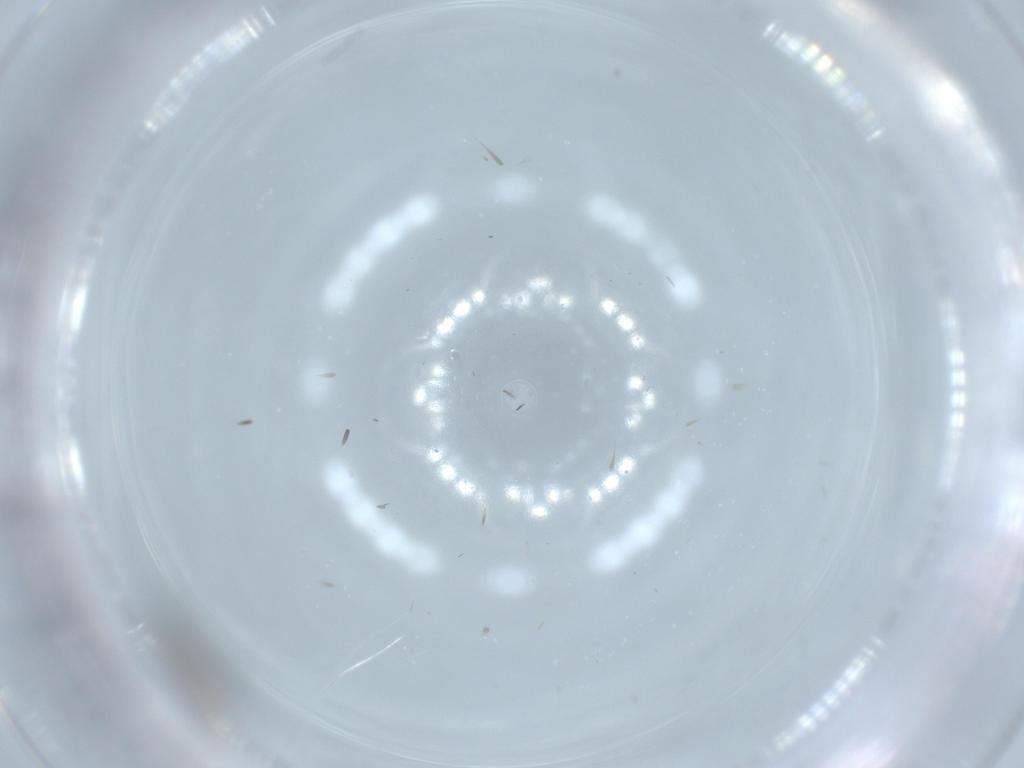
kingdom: Animalia
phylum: Arthropoda
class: Insecta
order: Thysanoptera
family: Phlaeothripidae
